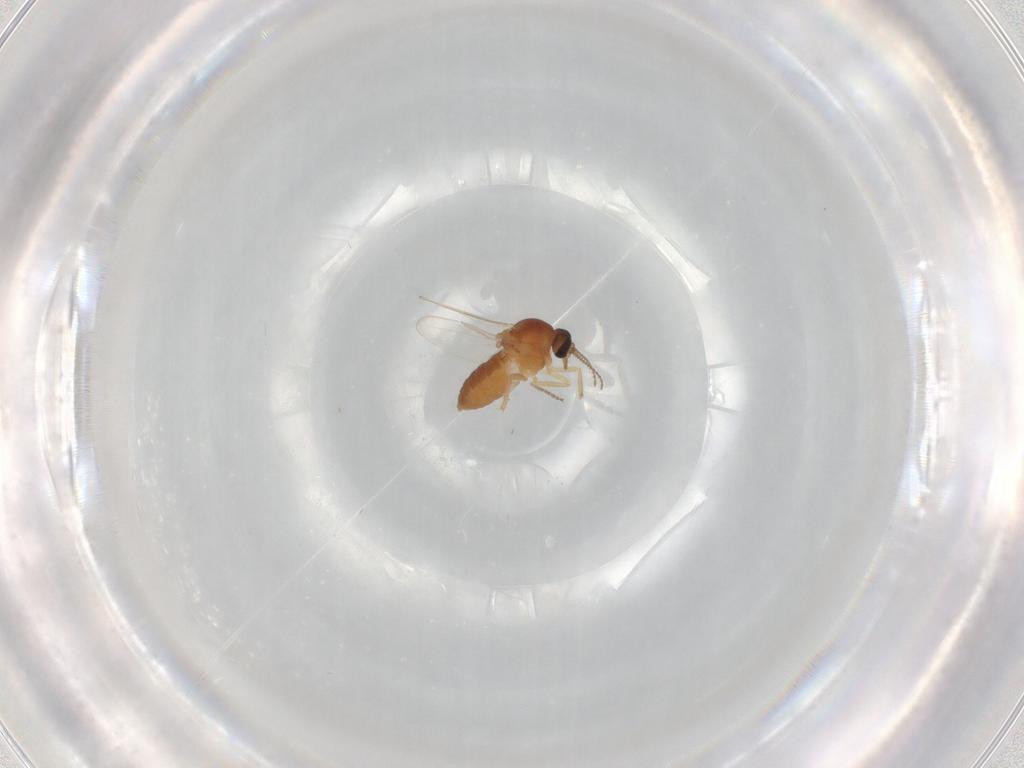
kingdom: Animalia
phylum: Arthropoda
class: Insecta
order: Diptera
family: Ceratopogonidae
